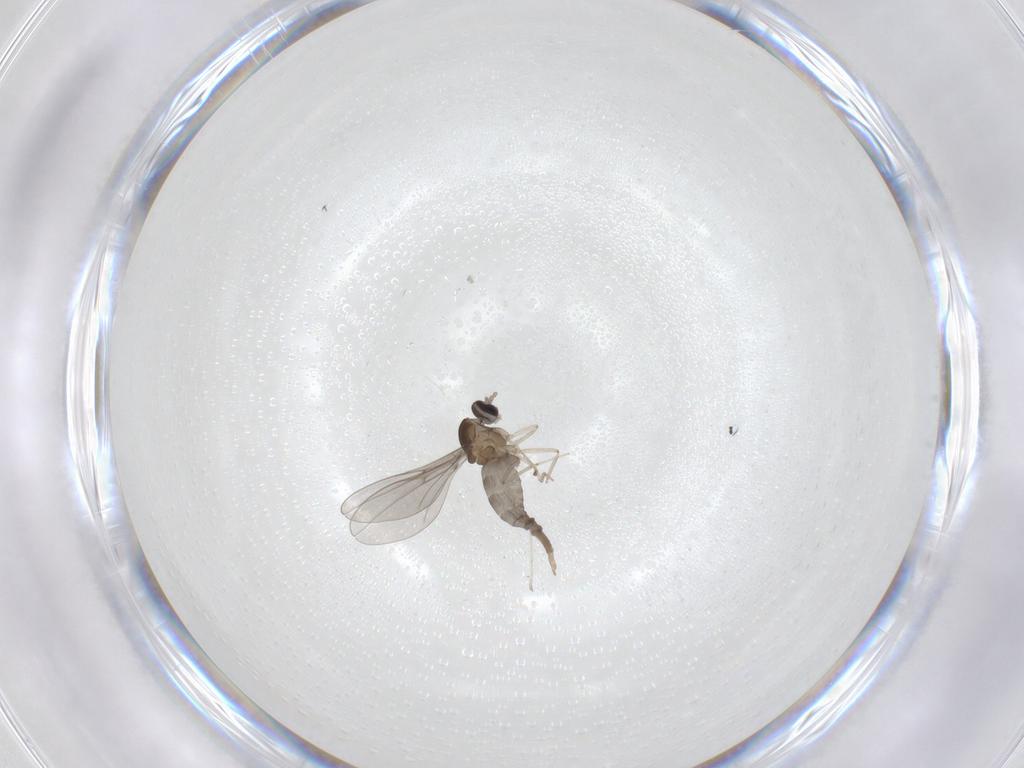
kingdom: Animalia
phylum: Arthropoda
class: Insecta
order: Diptera
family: Cecidomyiidae
